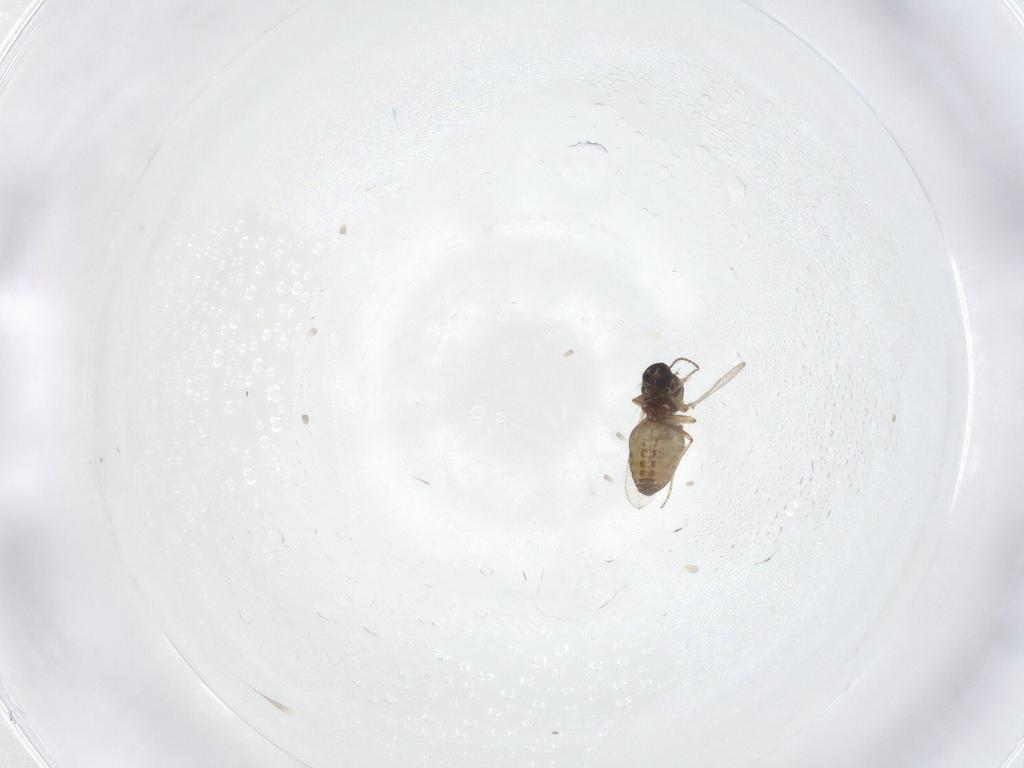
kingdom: Animalia
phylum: Arthropoda
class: Insecta
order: Diptera
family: Ceratopogonidae
